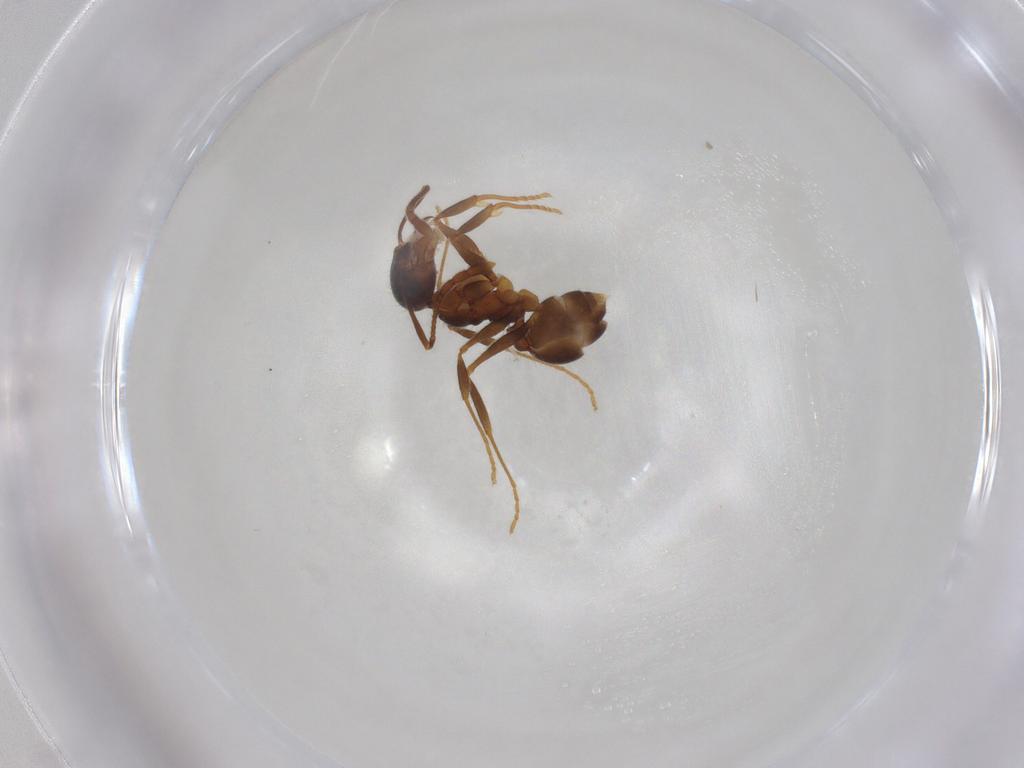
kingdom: Animalia
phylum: Arthropoda
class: Insecta
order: Hymenoptera
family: Formicidae
